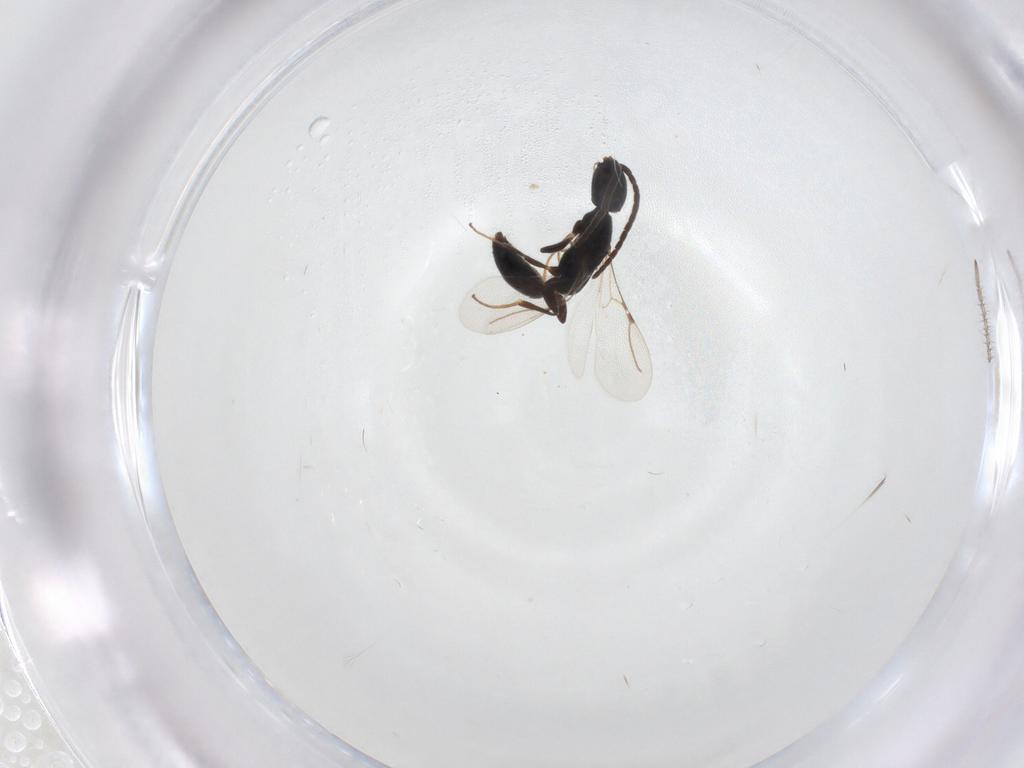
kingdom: Animalia
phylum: Arthropoda
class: Insecta
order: Hymenoptera
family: Bethylidae
